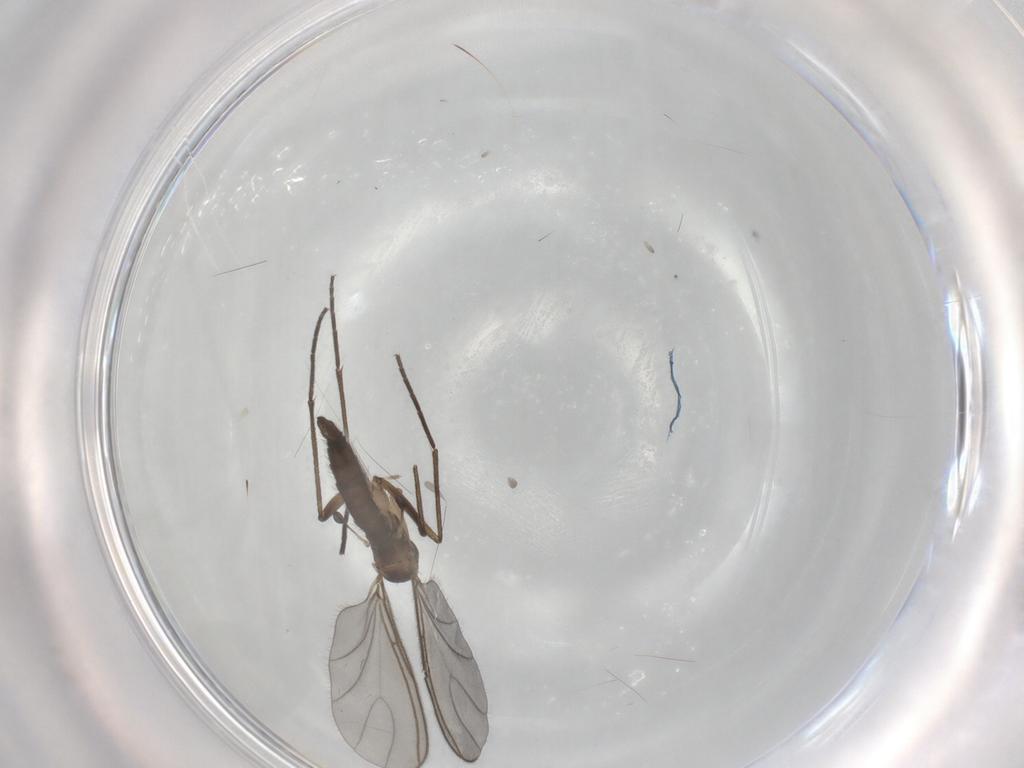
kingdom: Animalia
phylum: Arthropoda
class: Insecta
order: Diptera
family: Sciaridae
